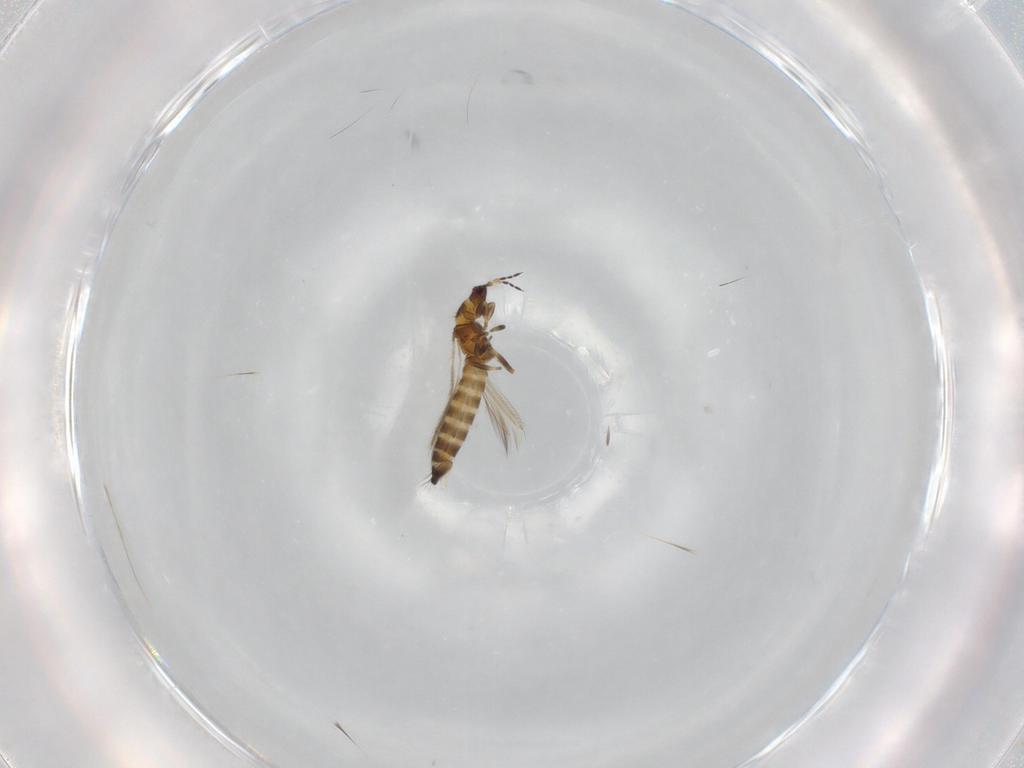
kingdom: Animalia
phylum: Arthropoda
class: Insecta
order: Thysanoptera
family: Thripidae
